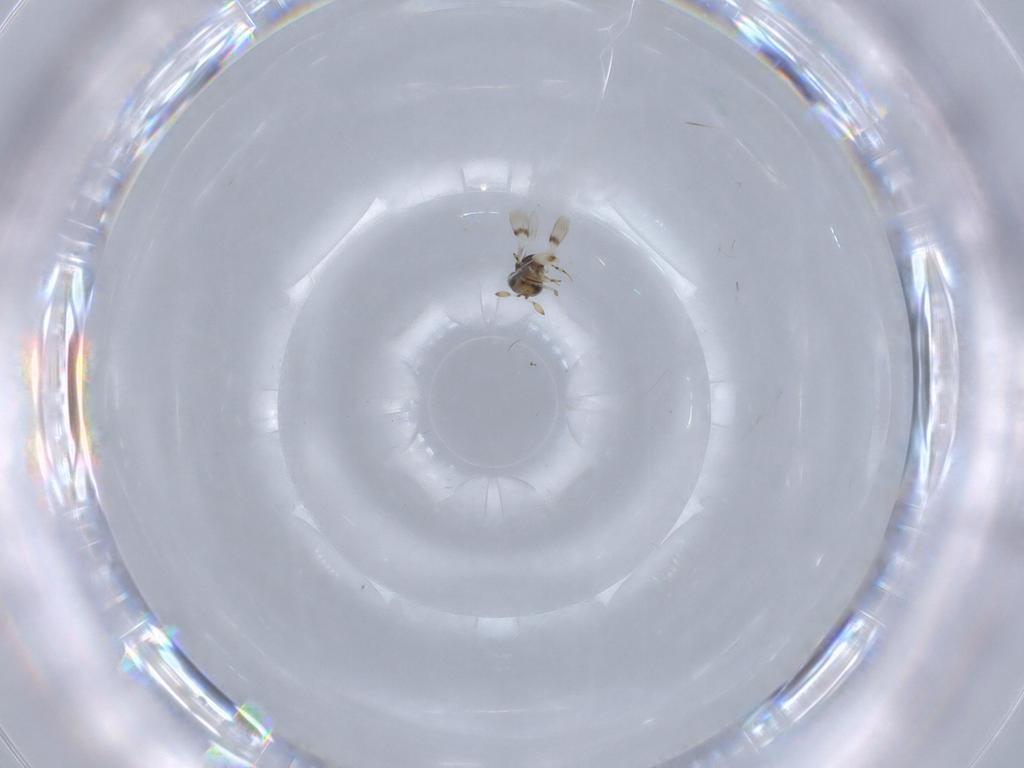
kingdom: Animalia
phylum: Arthropoda
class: Insecta
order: Hymenoptera
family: Scelionidae
